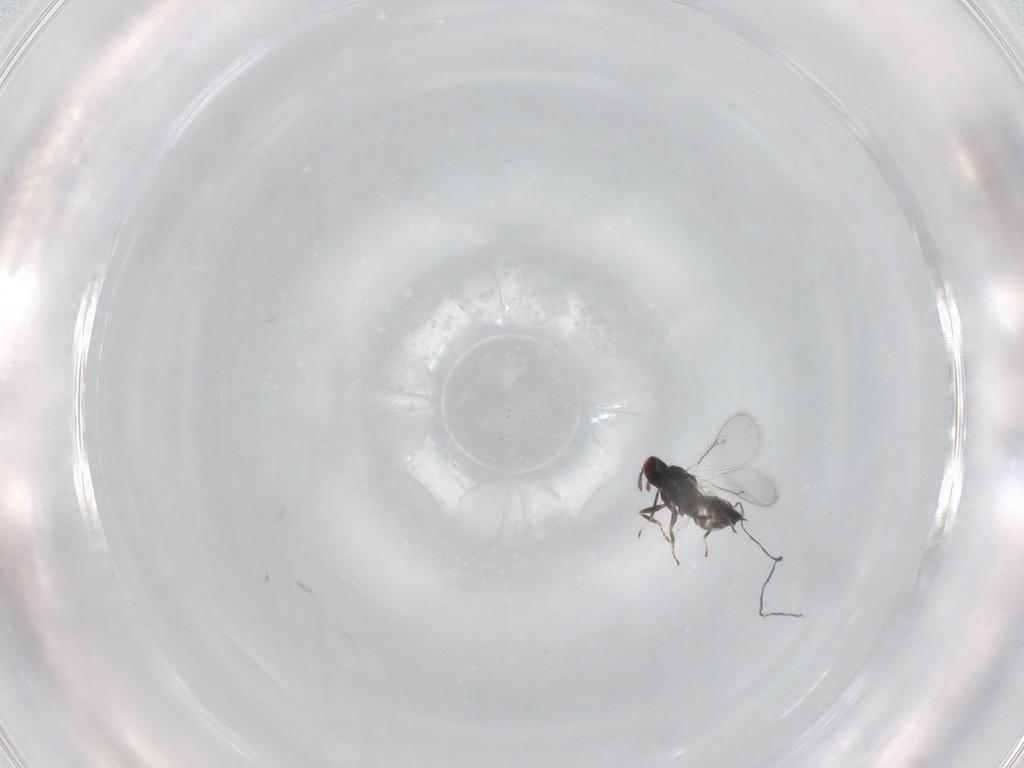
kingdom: Animalia
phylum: Arthropoda
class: Insecta
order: Hymenoptera
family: Eulophidae
